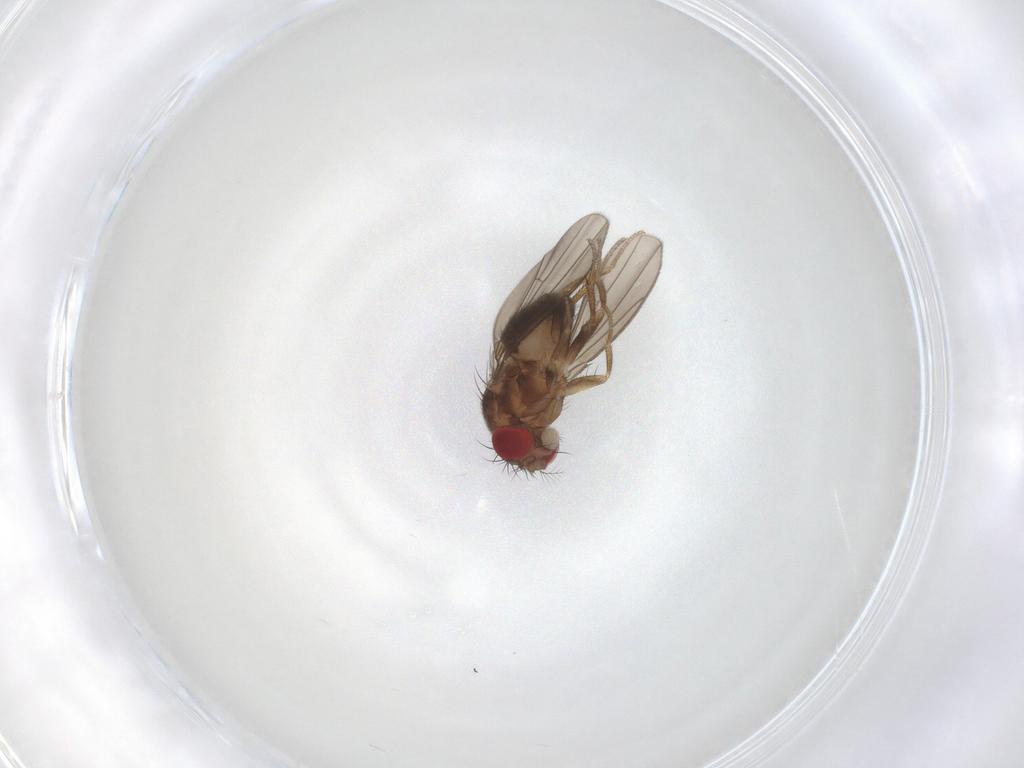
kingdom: Animalia
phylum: Arthropoda
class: Insecta
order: Diptera
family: Drosophilidae
